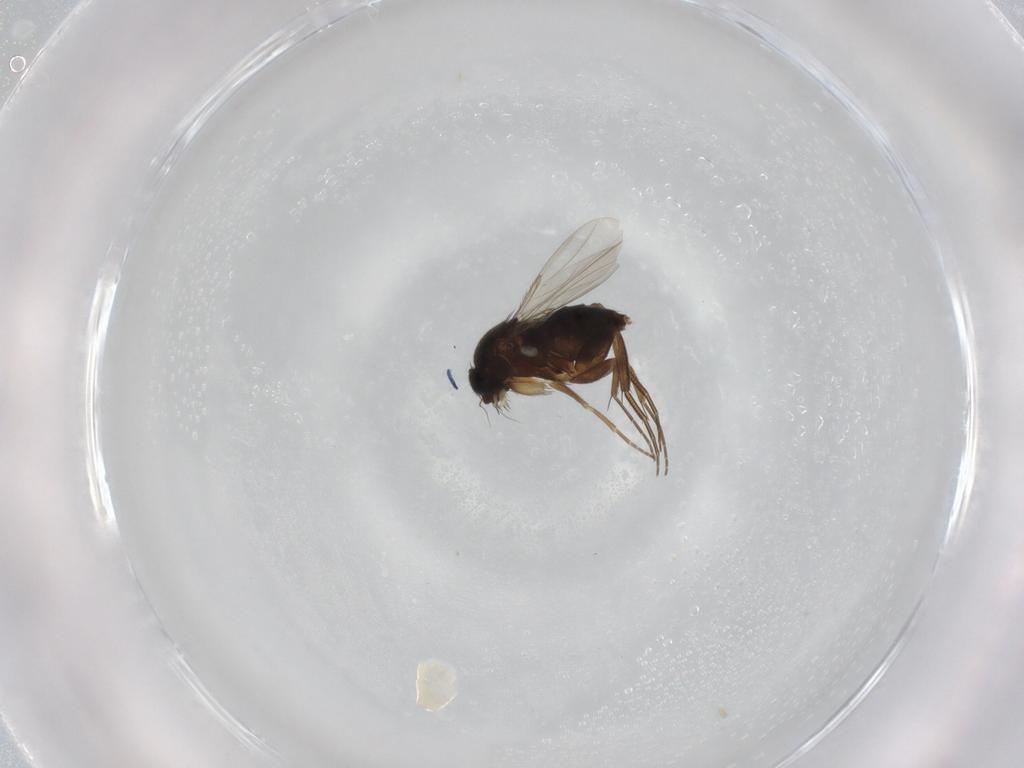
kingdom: Animalia
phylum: Arthropoda
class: Insecta
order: Diptera
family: Phoridae
